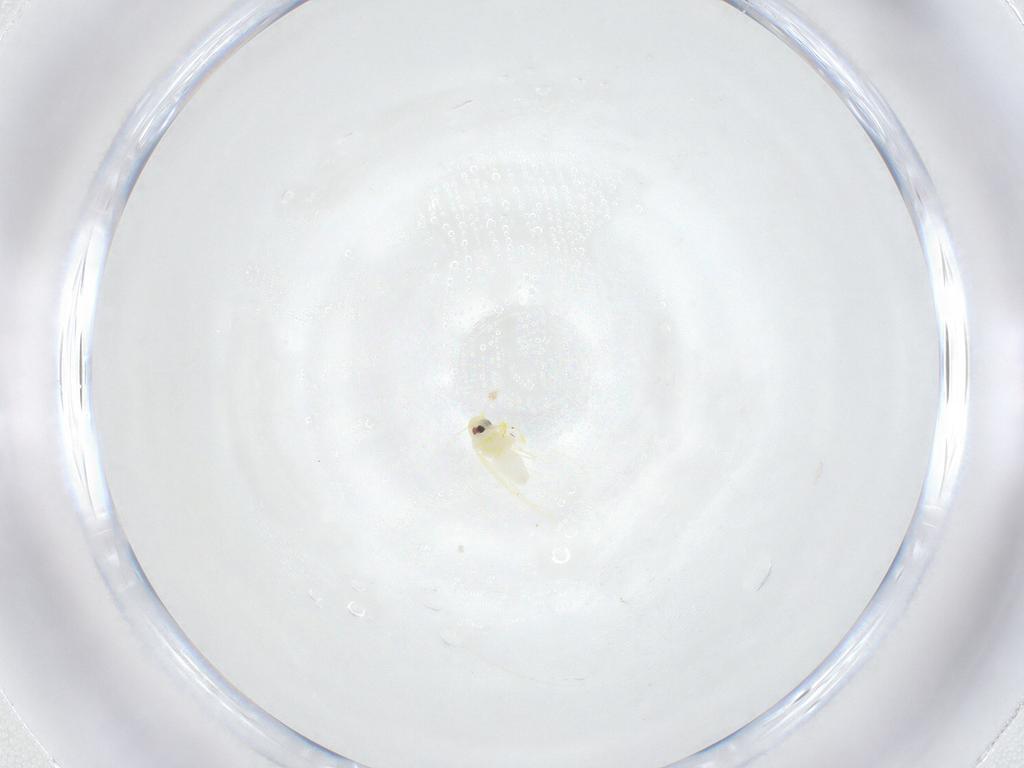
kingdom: Animalia
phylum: Arthropoda
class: Insecta
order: Hemiptera
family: Aleyrodidae
